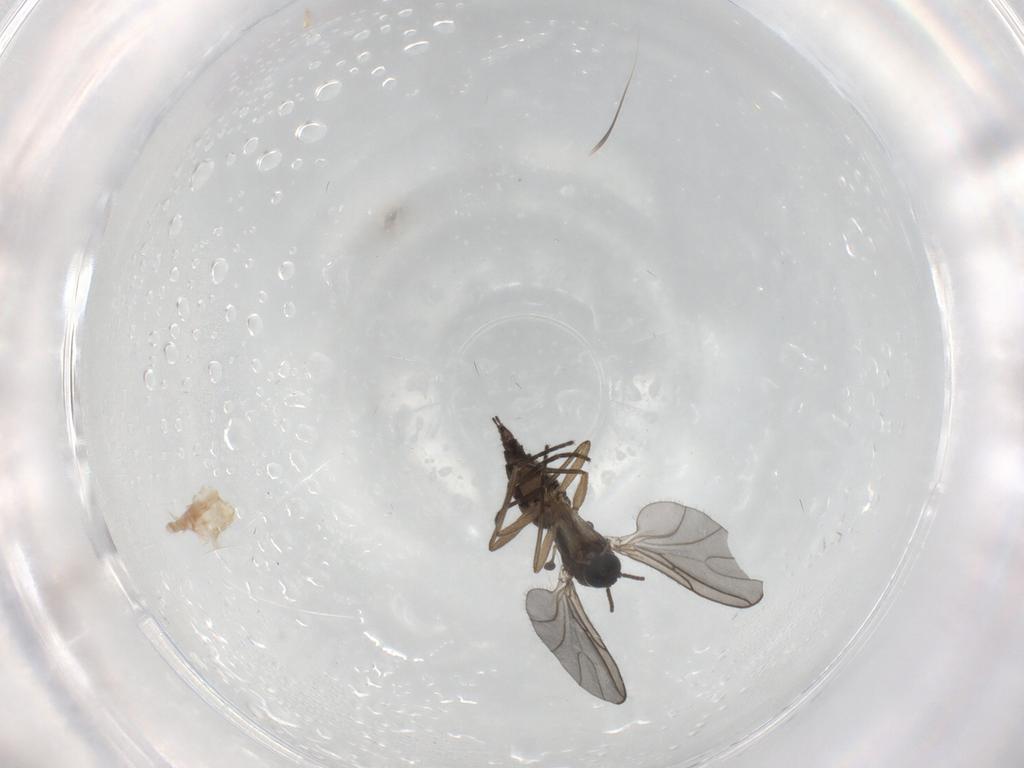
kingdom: Animalia
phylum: Arthropoda
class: Insecta
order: Diptera
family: Sciaridae
